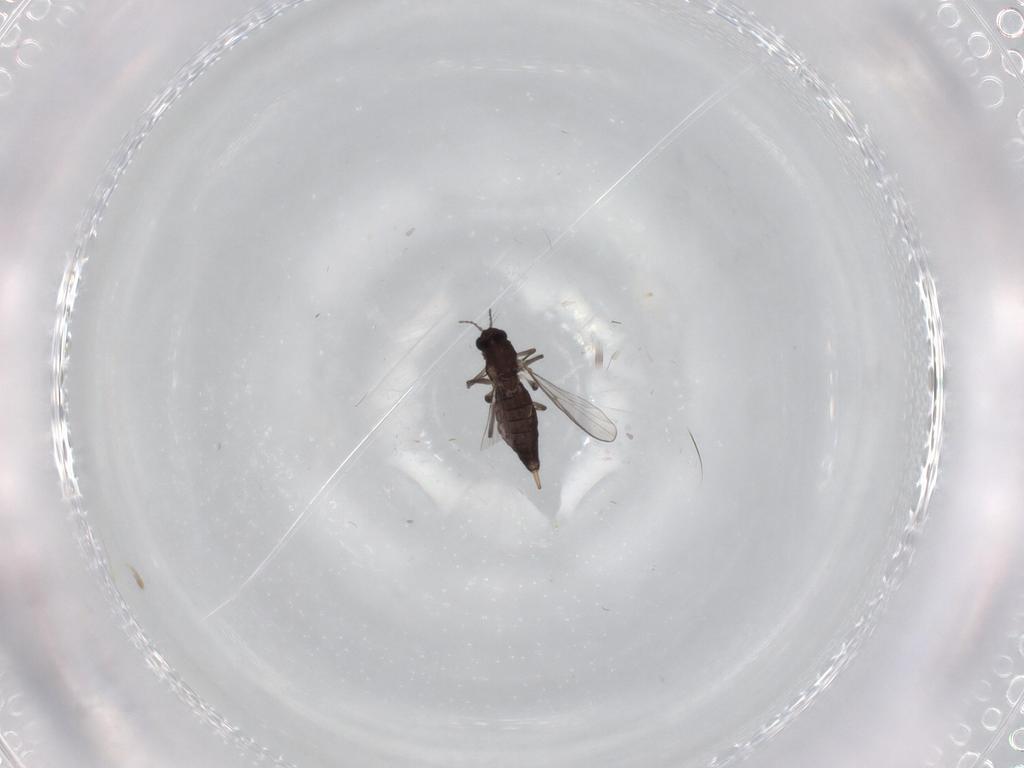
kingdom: Animalia
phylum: Arthropoda
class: Insecta
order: Diptera
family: Chironomidae
